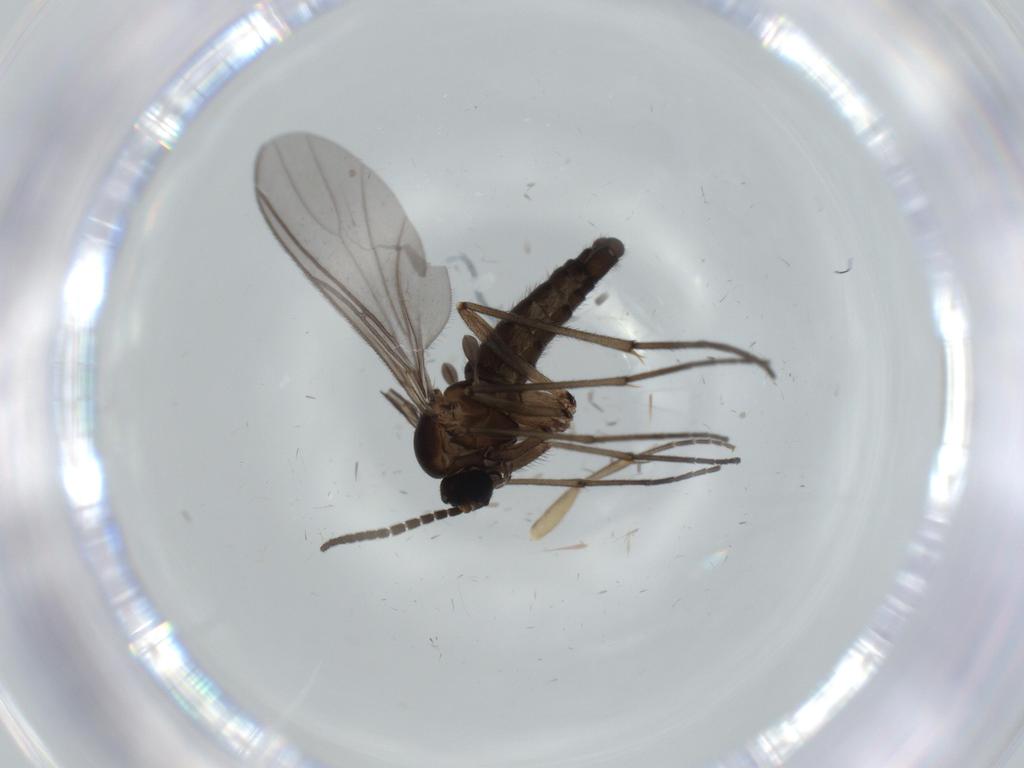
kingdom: Animalia
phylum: Arthropoda
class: Insecta
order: Diptera
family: Sciaridae
